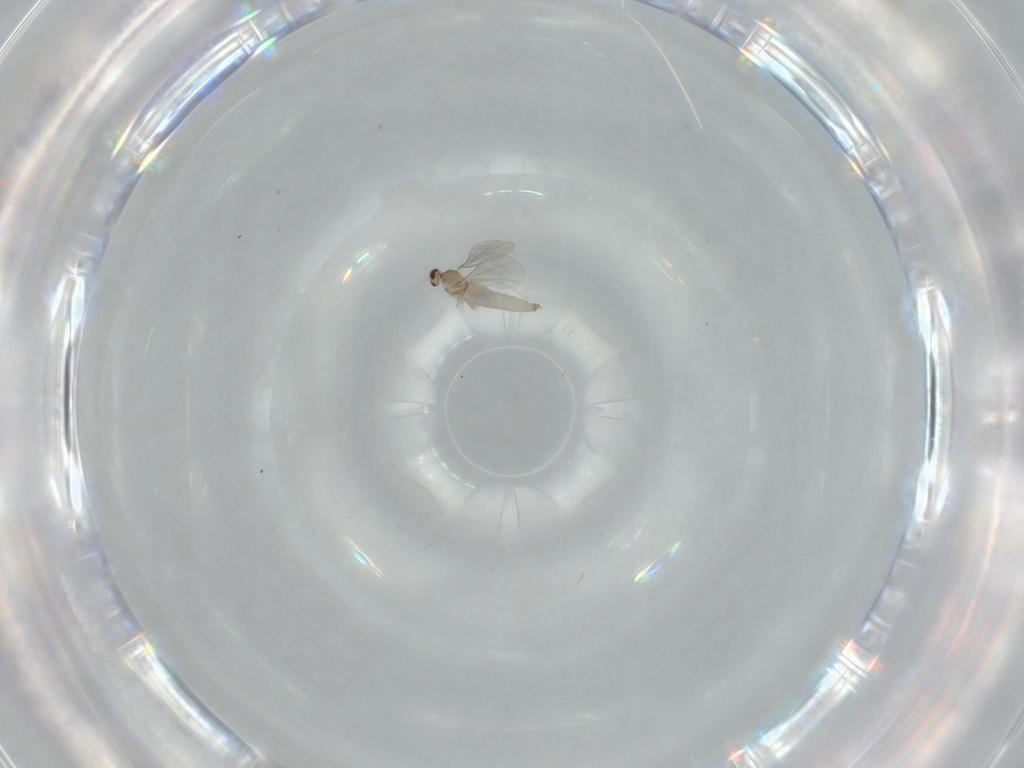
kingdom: Animalia
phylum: Arthropoda
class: Insecta
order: Diptera
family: Cecidomyiidae
